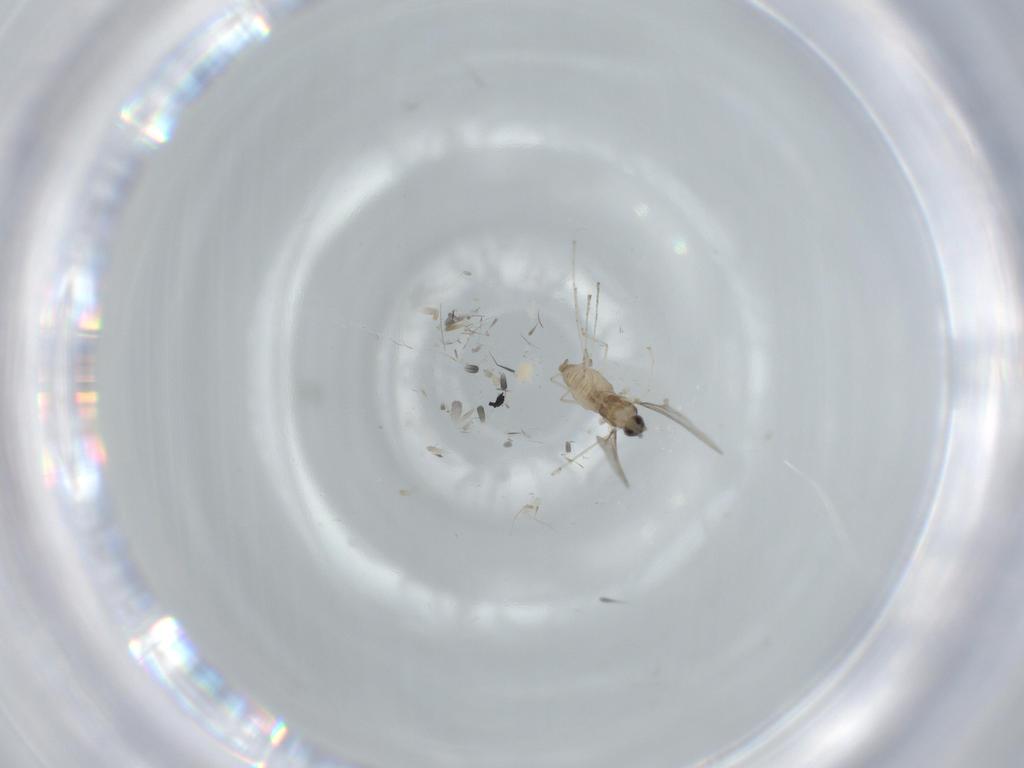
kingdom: Animalia
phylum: Arthropoda
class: Insecta
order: Diptera
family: Cecidomyiidae
